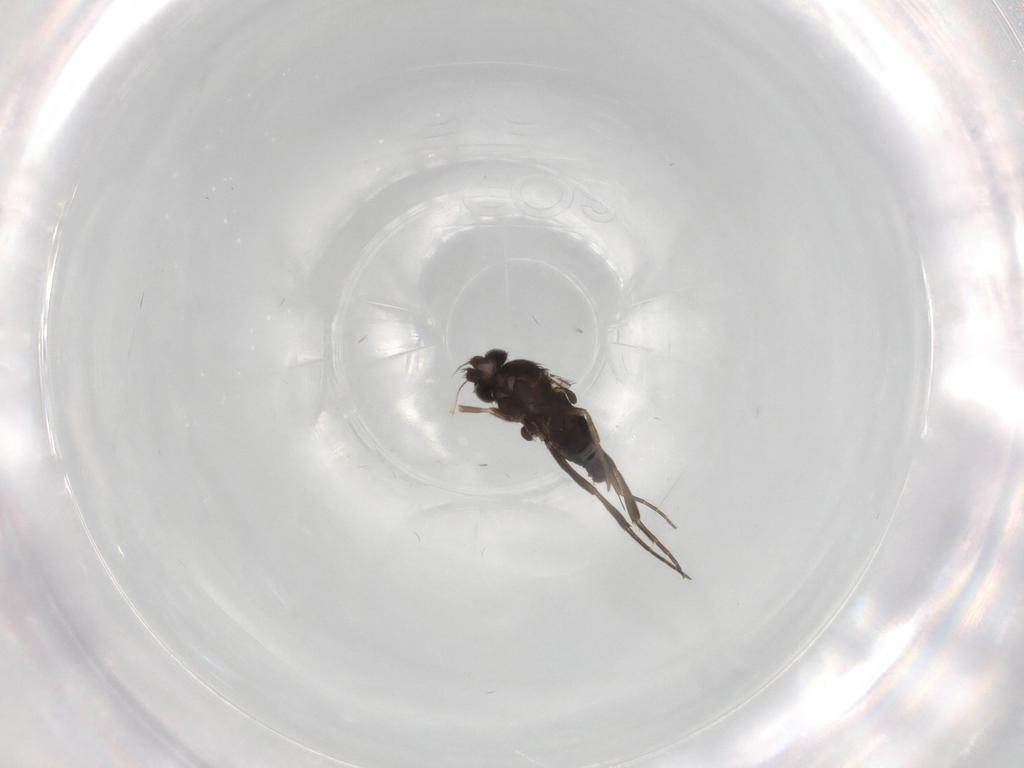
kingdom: Animalia
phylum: Arthropoda
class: Insecta
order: Diptera
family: Phoridae
